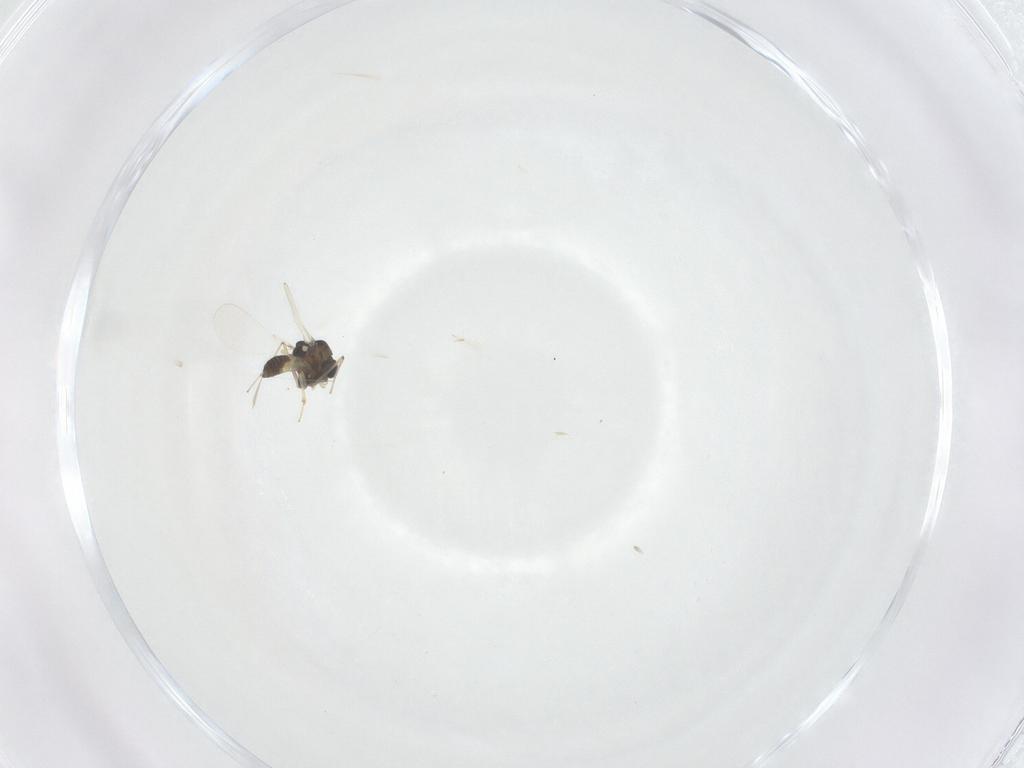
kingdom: Animalia
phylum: Arthropoda
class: Insecta
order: Diptera
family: Chironomidae
